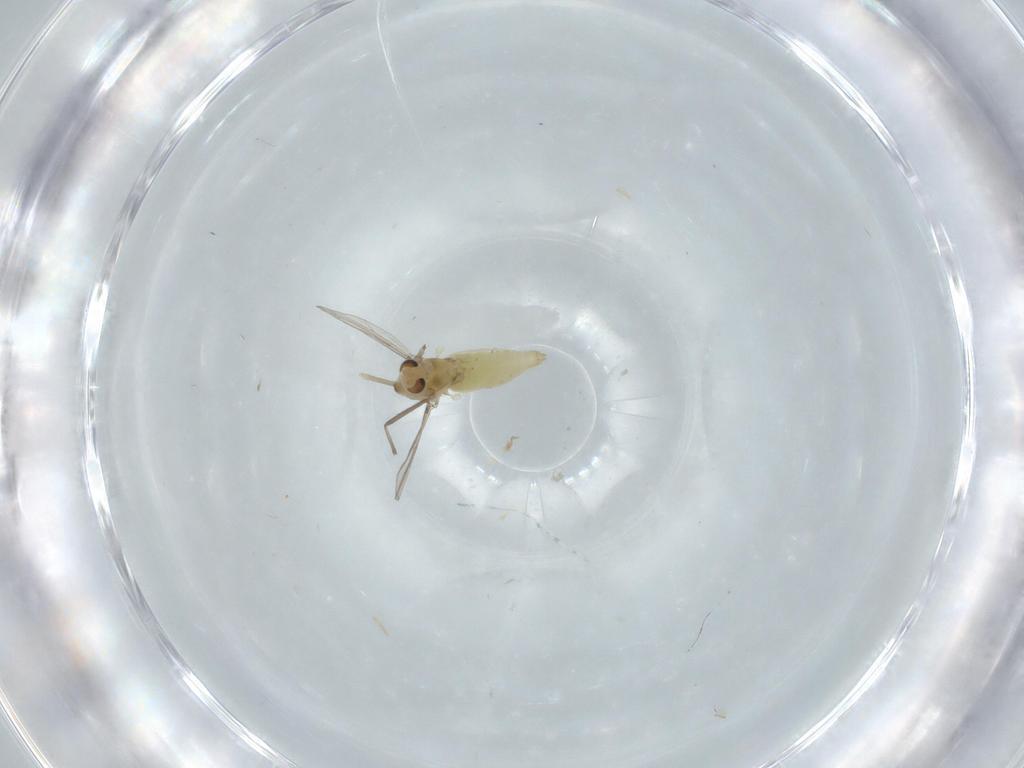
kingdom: Animalia
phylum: Arthropoda
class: Insecta
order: Diptera
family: Chironomidae
